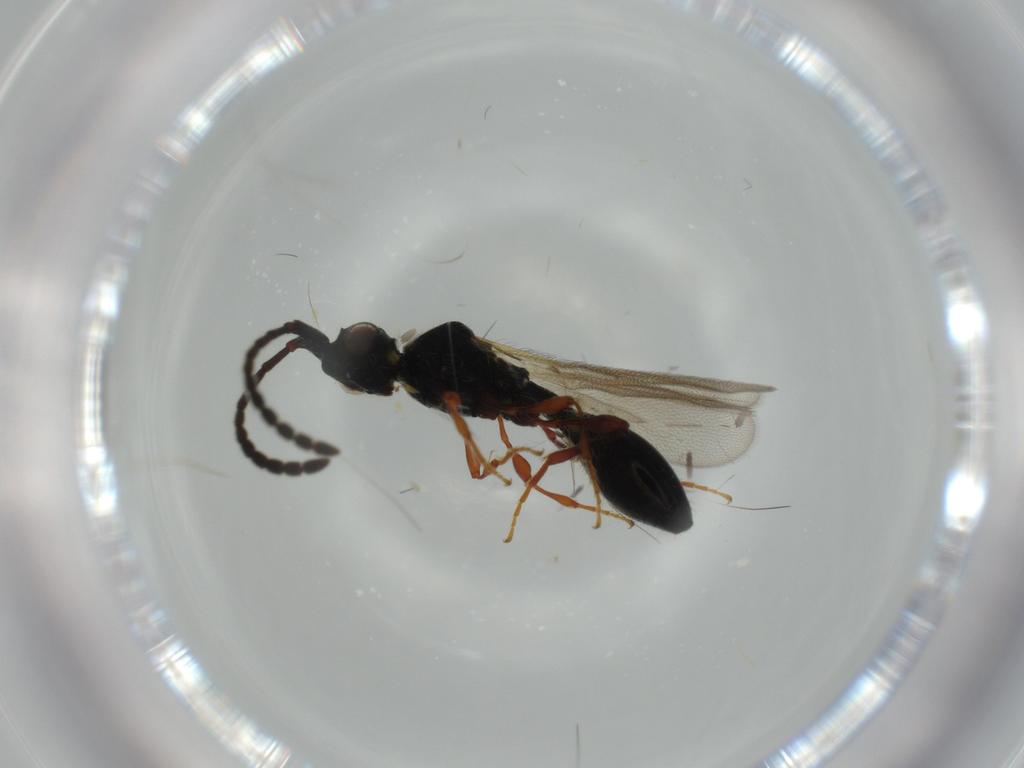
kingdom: Animalia
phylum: Arthropoda
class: Insecta
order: Hymenoptera
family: Diapriidae
